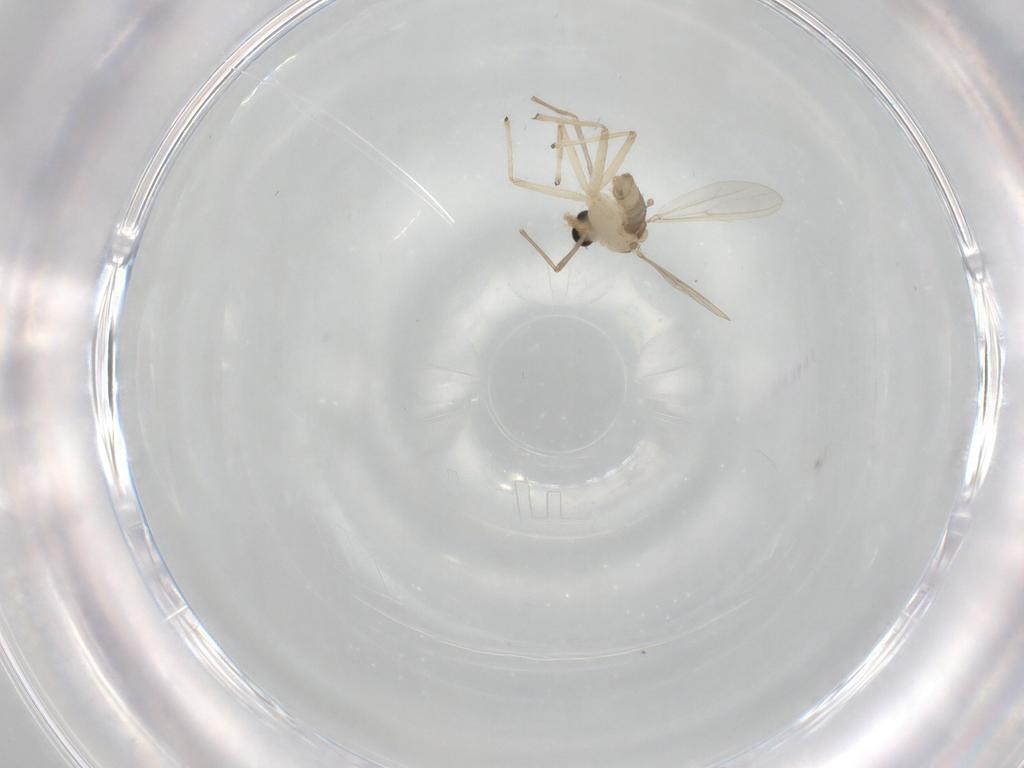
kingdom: Animalia
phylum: Arthropoda
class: Insecta
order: Diptera
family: Chironomidae
